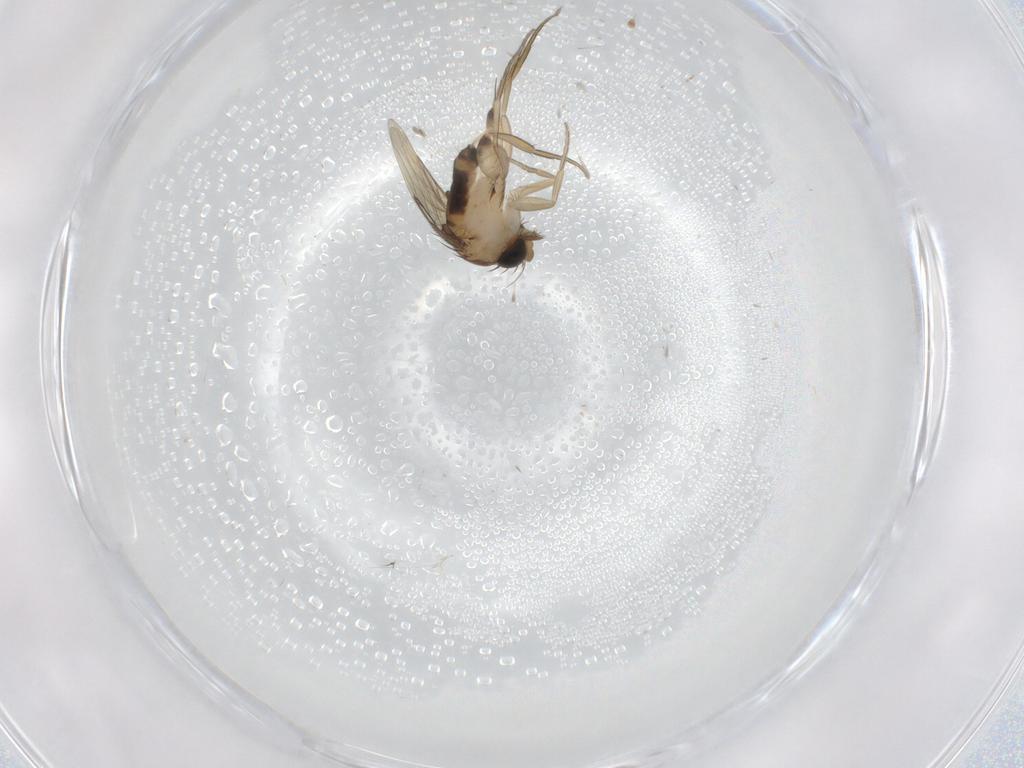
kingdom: Animalia
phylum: Arthropoda
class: Insecta
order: Diptera
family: Phoridae
